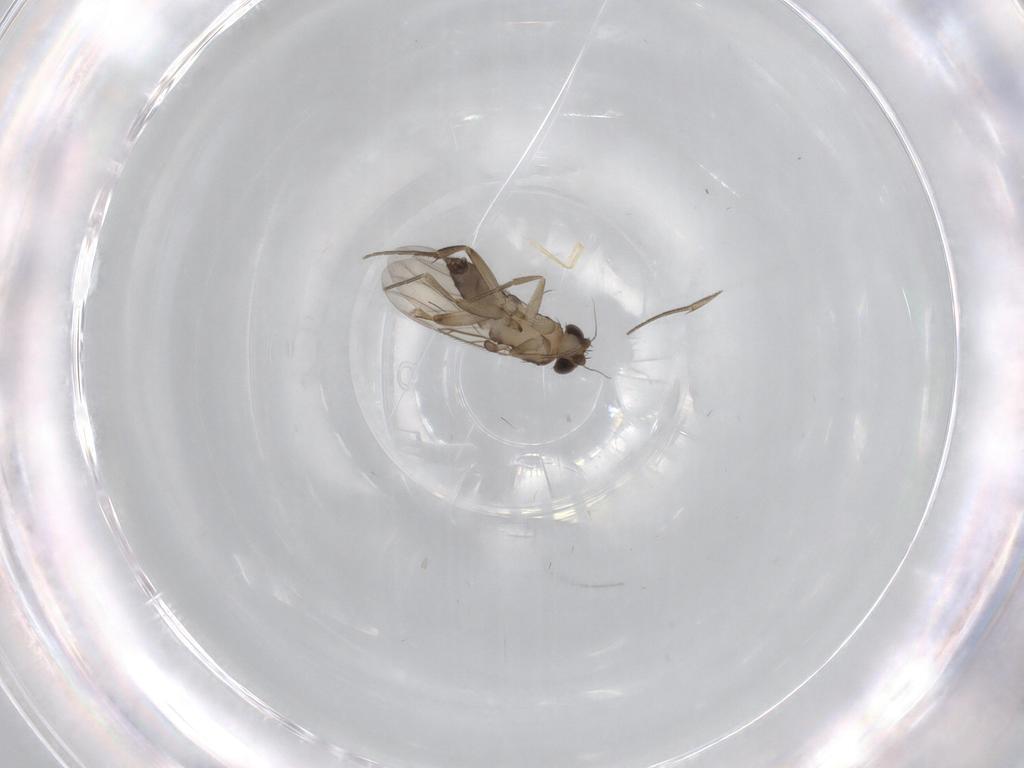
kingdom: Animalia
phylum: Arthropoda
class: Insecta
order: Diptera
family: Phoridae
